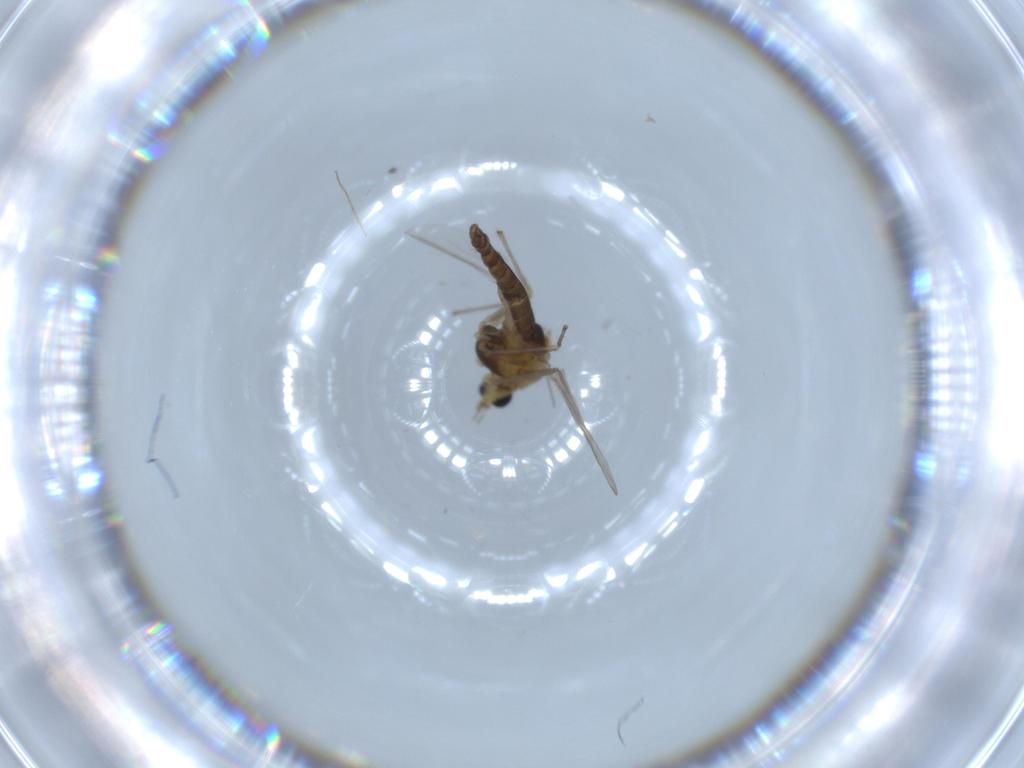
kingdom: Animalia
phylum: Arthropoda
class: Insecta
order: Diptera
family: Chironomidae
